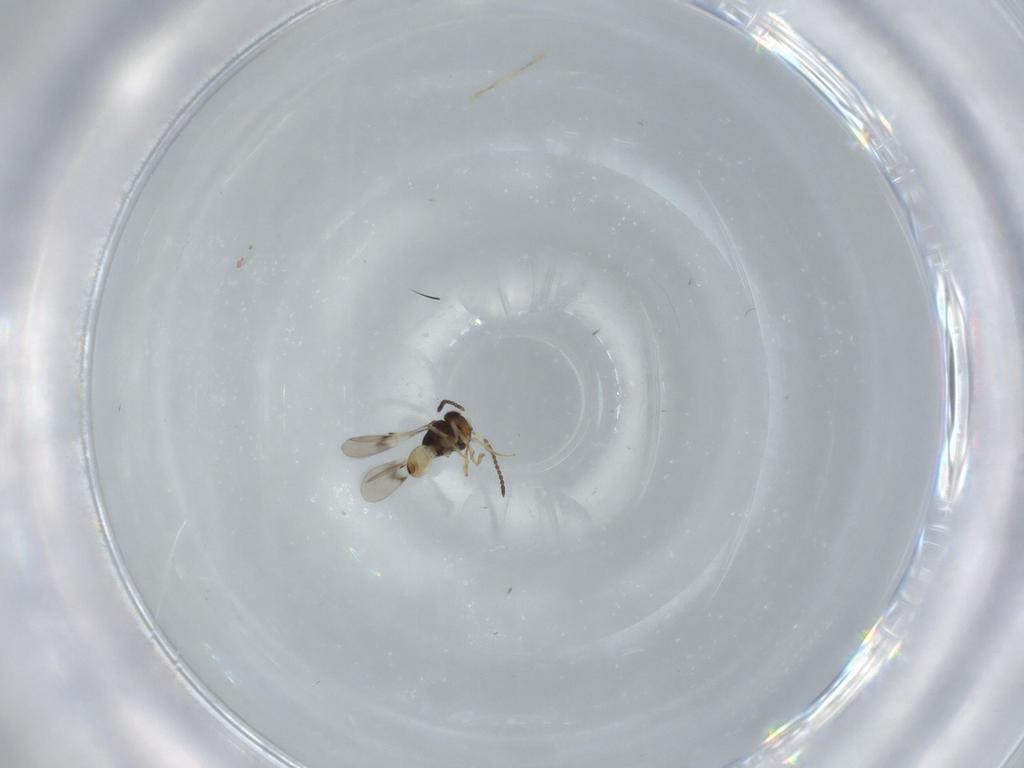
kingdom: Animalia
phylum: Arthropoda
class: Insecta
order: Hymenoptera
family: Scelionidae
